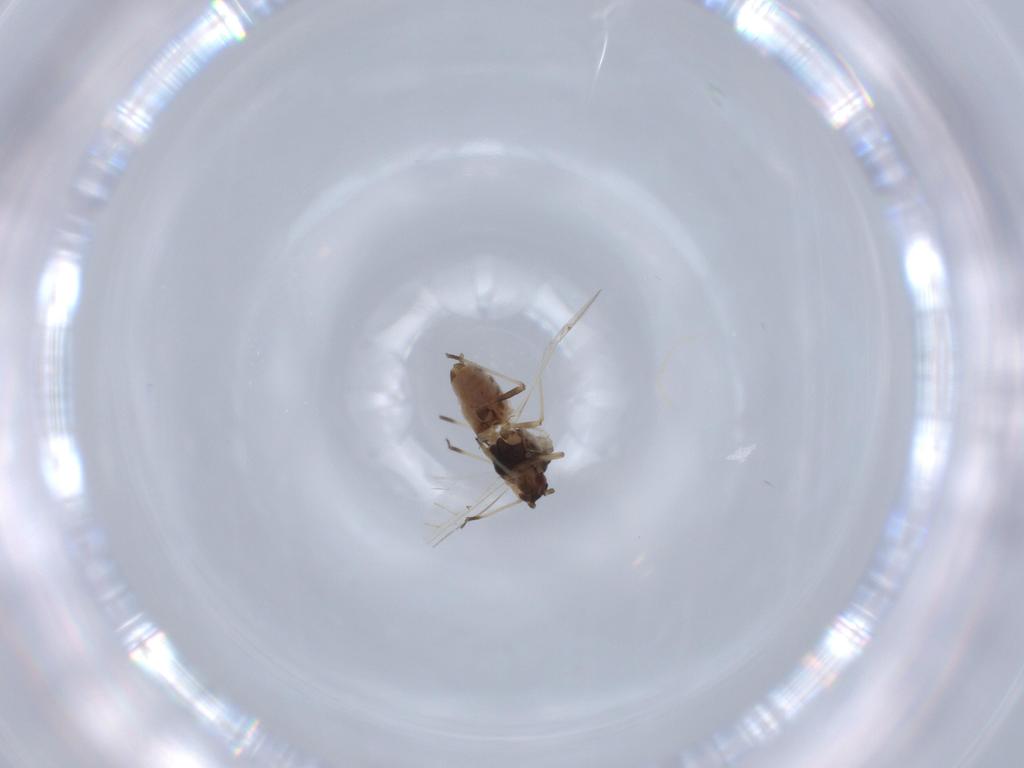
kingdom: Animalia
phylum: Arthropoda
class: Insecta
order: Hemiptera
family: Aphididae
